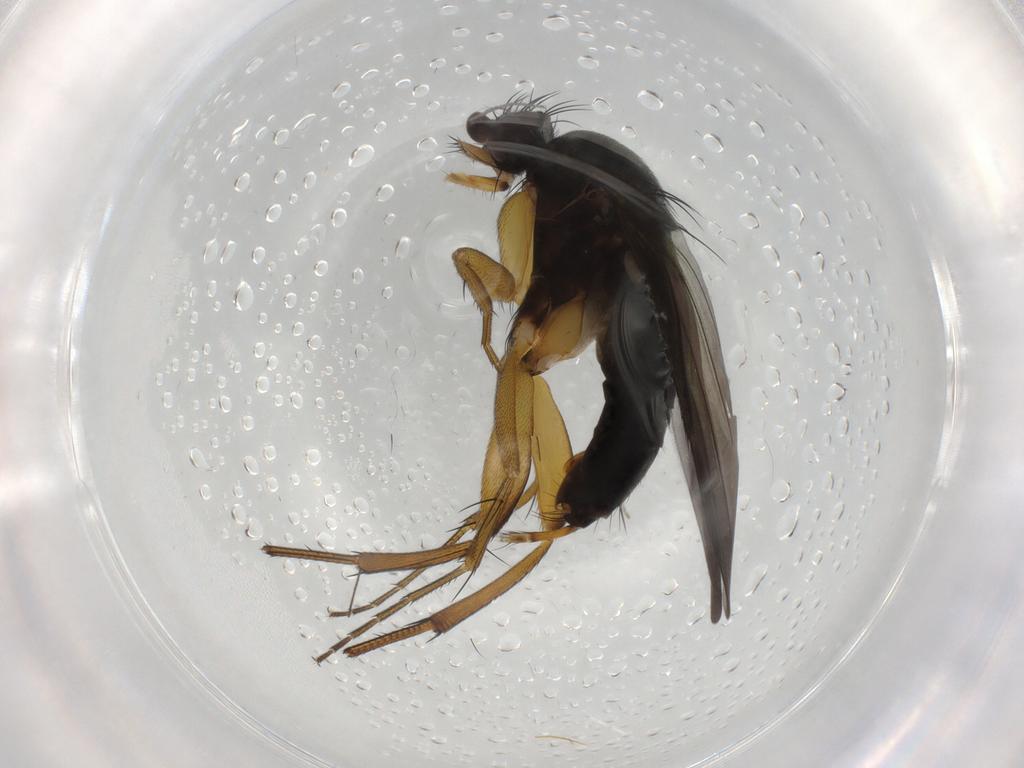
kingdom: Animalia
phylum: Arthropoda
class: Insecta
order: Diptera
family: Phoridae
